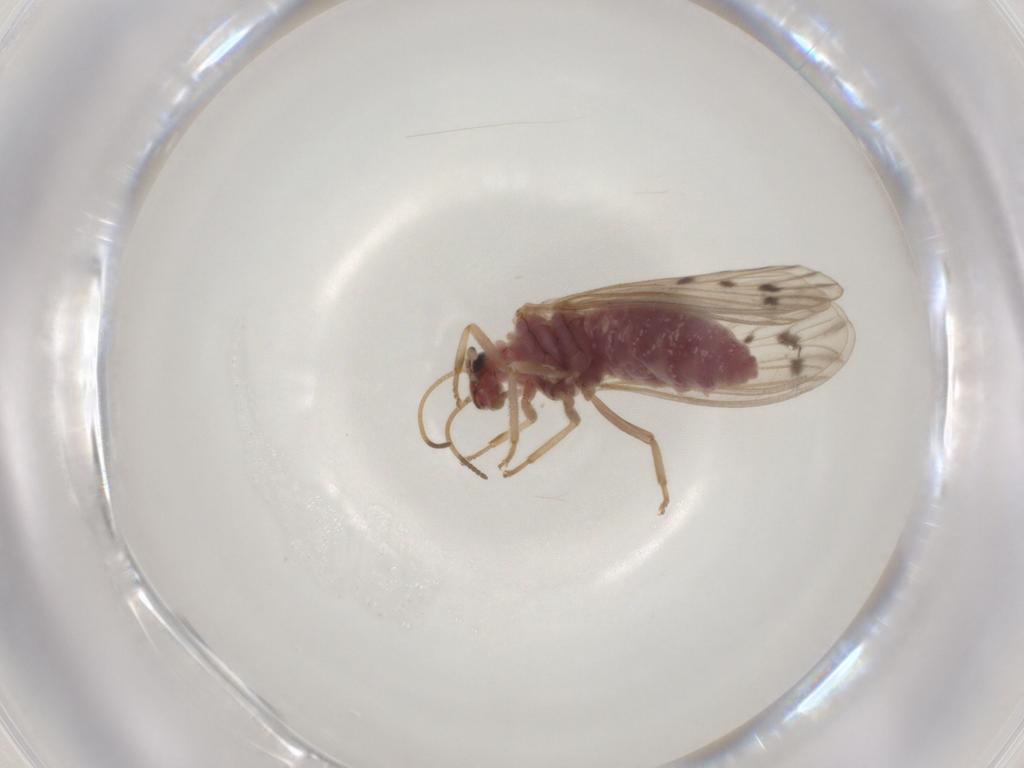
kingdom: Animalia
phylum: Arthropoda
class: Insecta
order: Neuroptera
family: Coniopterygidae
